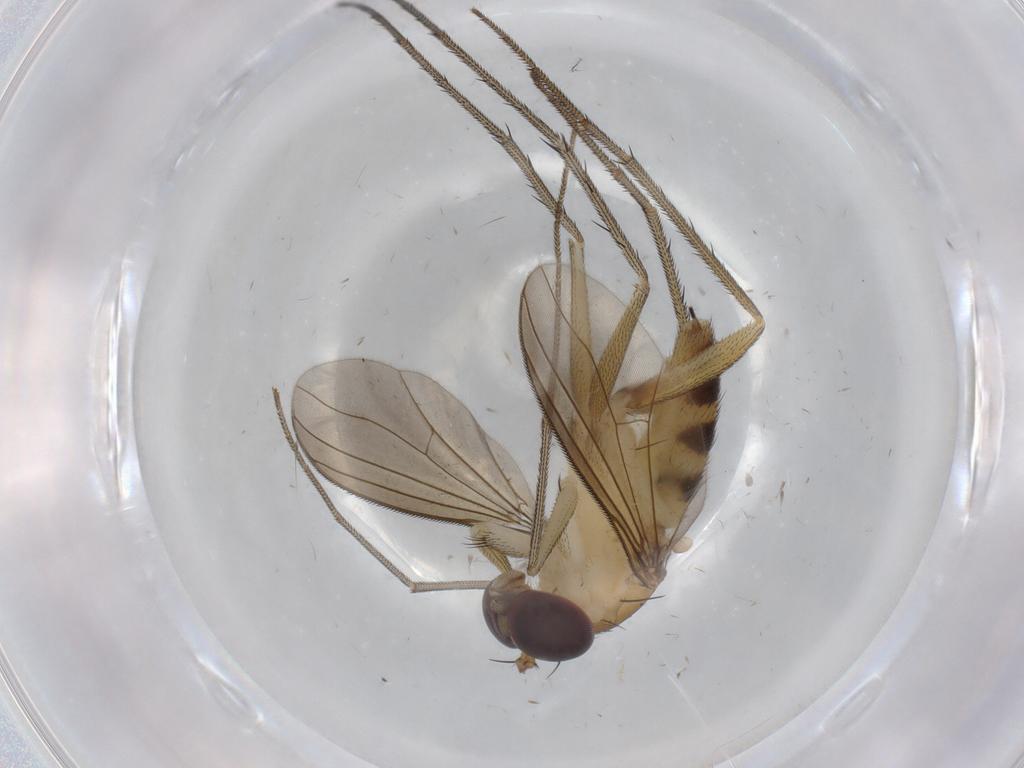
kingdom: Animalia
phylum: Arthropoda
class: Insecta
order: Diptera
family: Dolichopodidae
